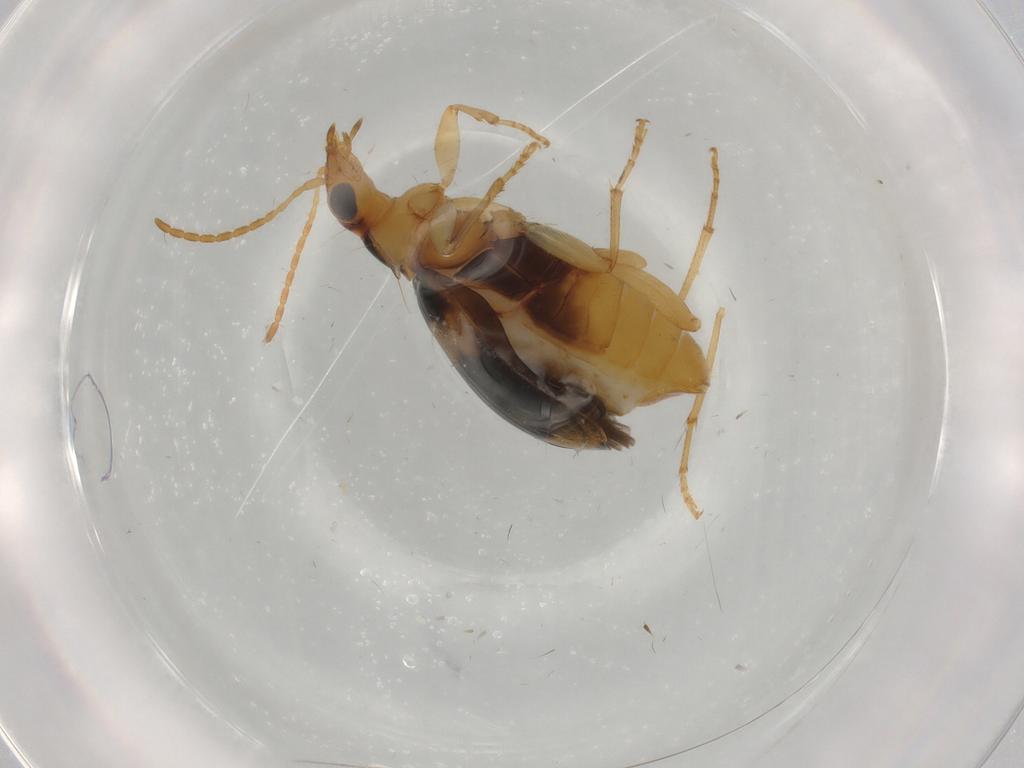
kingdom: Animalia
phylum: Arthropoda
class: Insecta
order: Coleoptera
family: Carabidae
